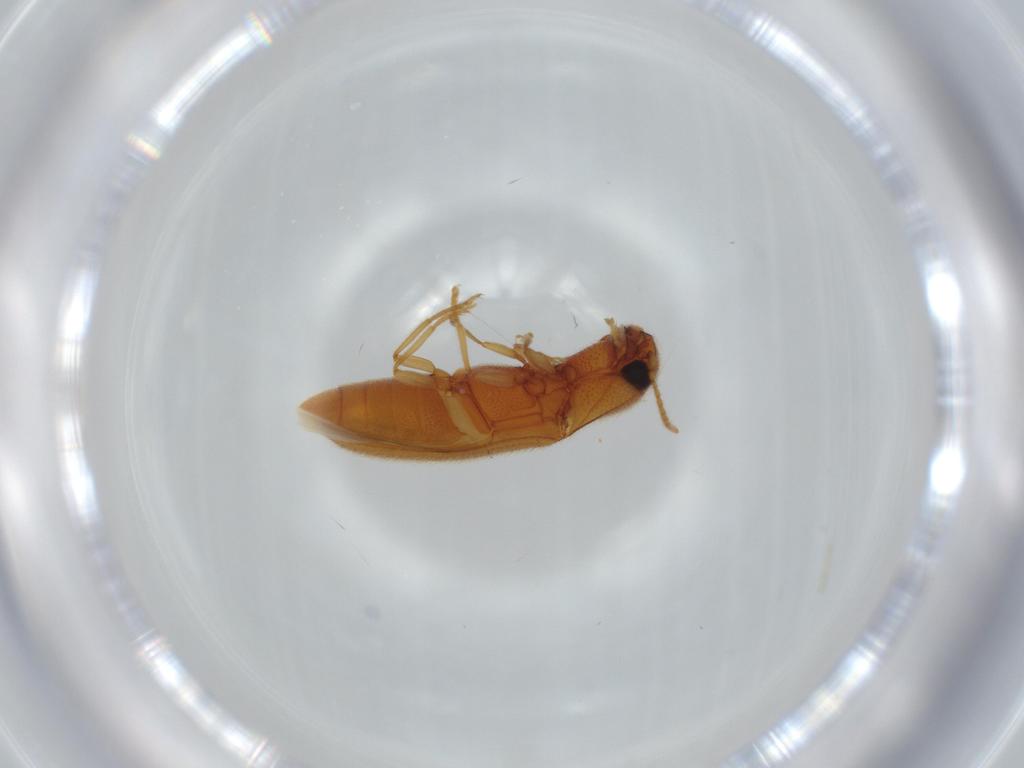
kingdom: Animalia
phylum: Arthropoda
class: Insecta
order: Coleoptera
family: Elateridae
